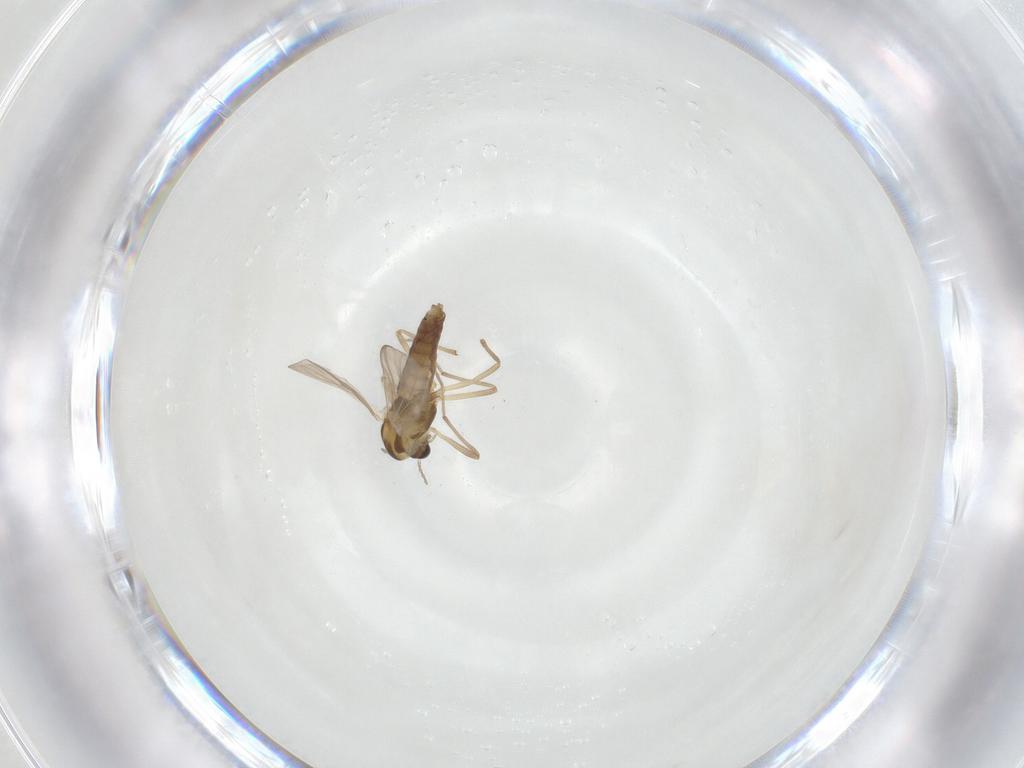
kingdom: Animalia
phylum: Arthropoda
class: Insecta
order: Diptera
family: Chironomidae
